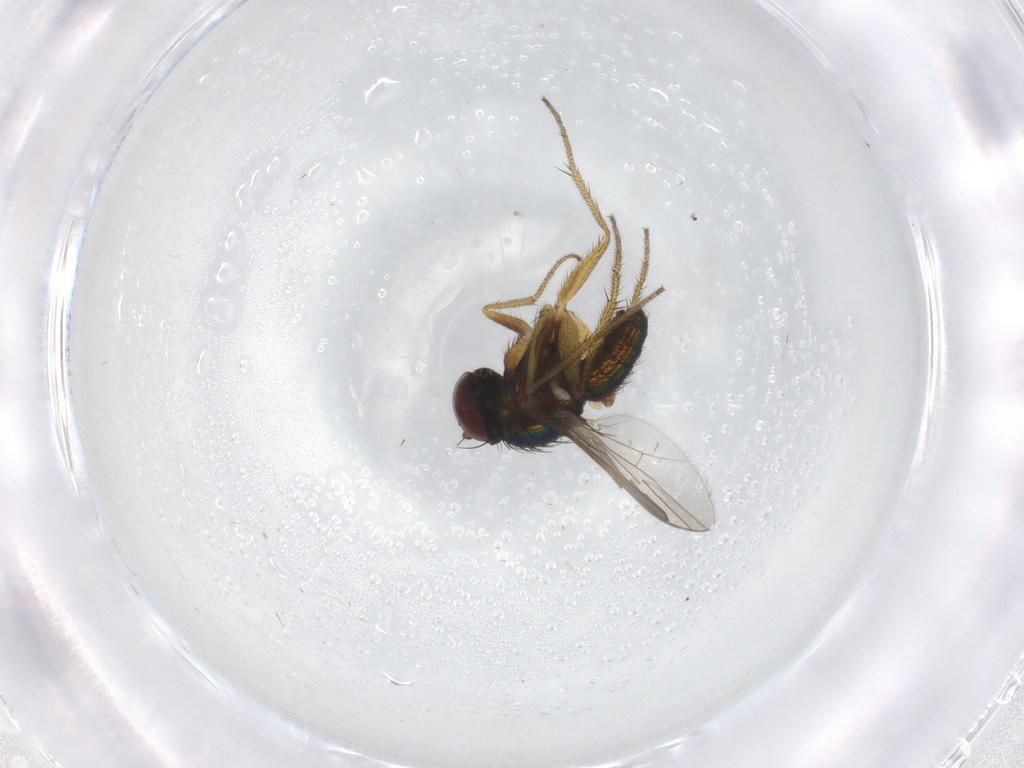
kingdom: Animalia
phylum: Arthropoda
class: Insecta
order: Diptera
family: Dolichopodidae
